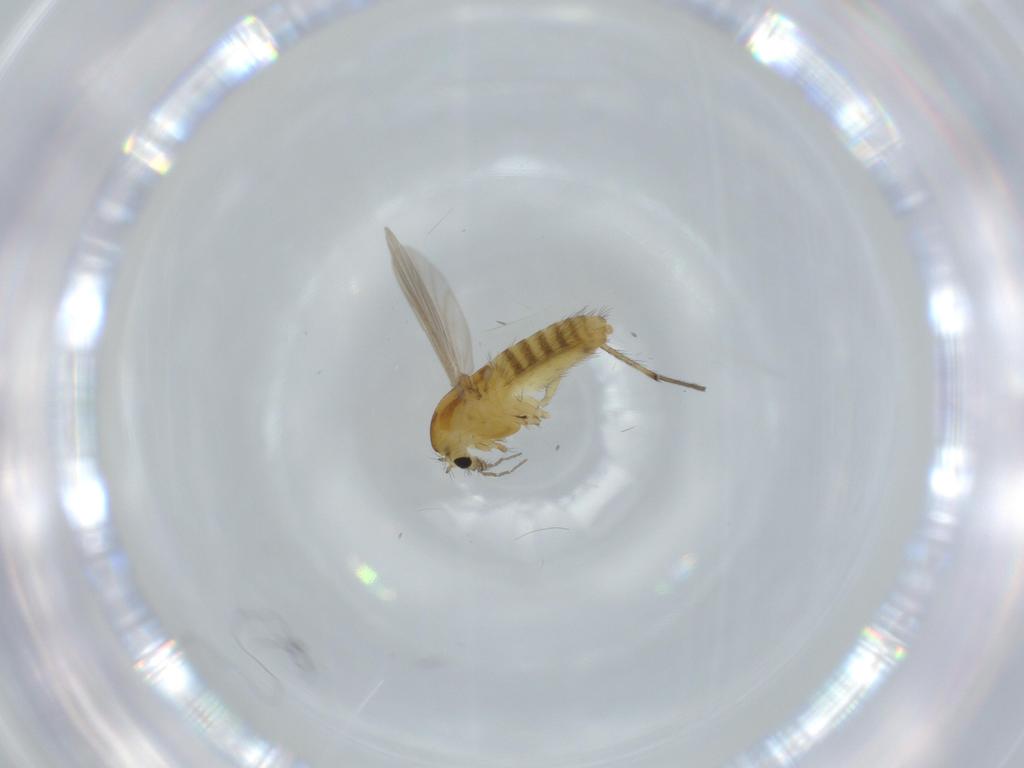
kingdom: Animalia
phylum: Arthropoda
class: Insecta
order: Diptera
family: Chironomidae
